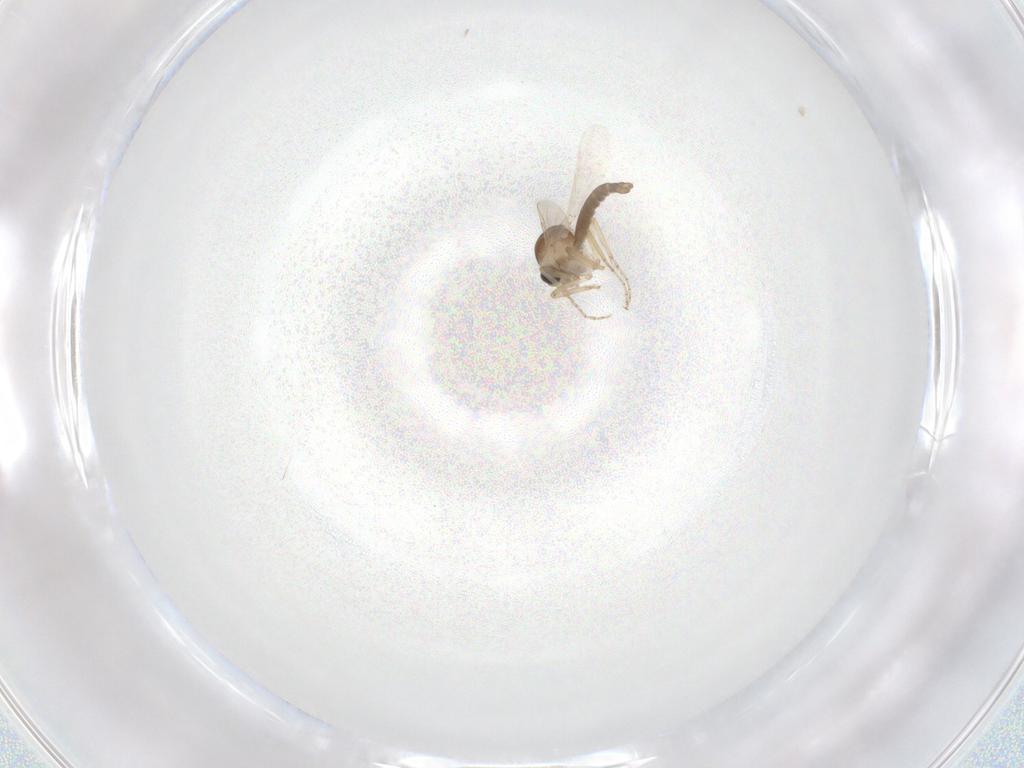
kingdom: Animalia
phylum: Arthropoda
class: Insecta
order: Diptera
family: Ceratopogonidae
